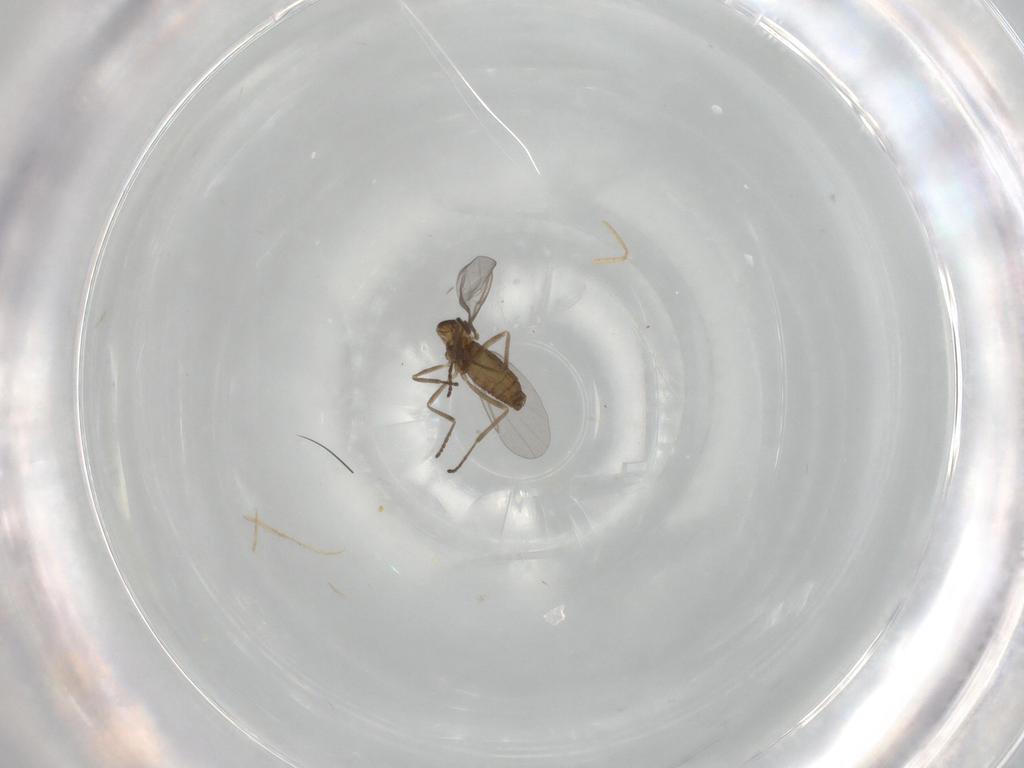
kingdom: Animalia
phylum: Arthropoda
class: Insecta
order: Diptera
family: Cecidomyiidae
